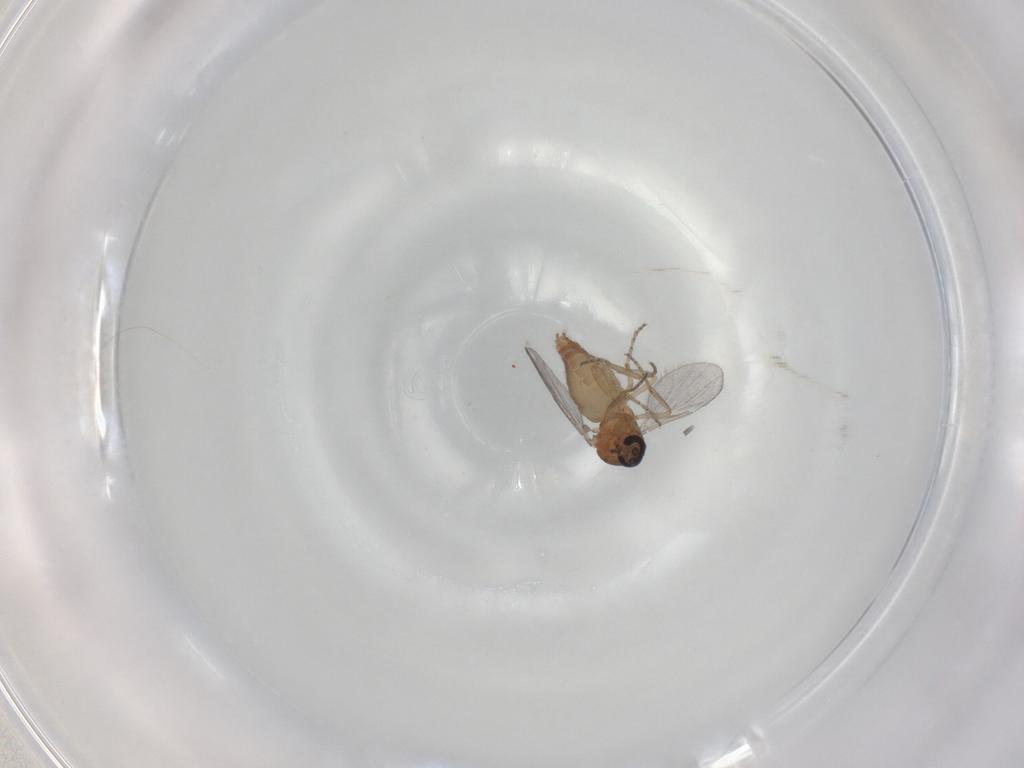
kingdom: Animalia
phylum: Arthropoda
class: Insecta
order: Diptera
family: Ceratopogonidae
